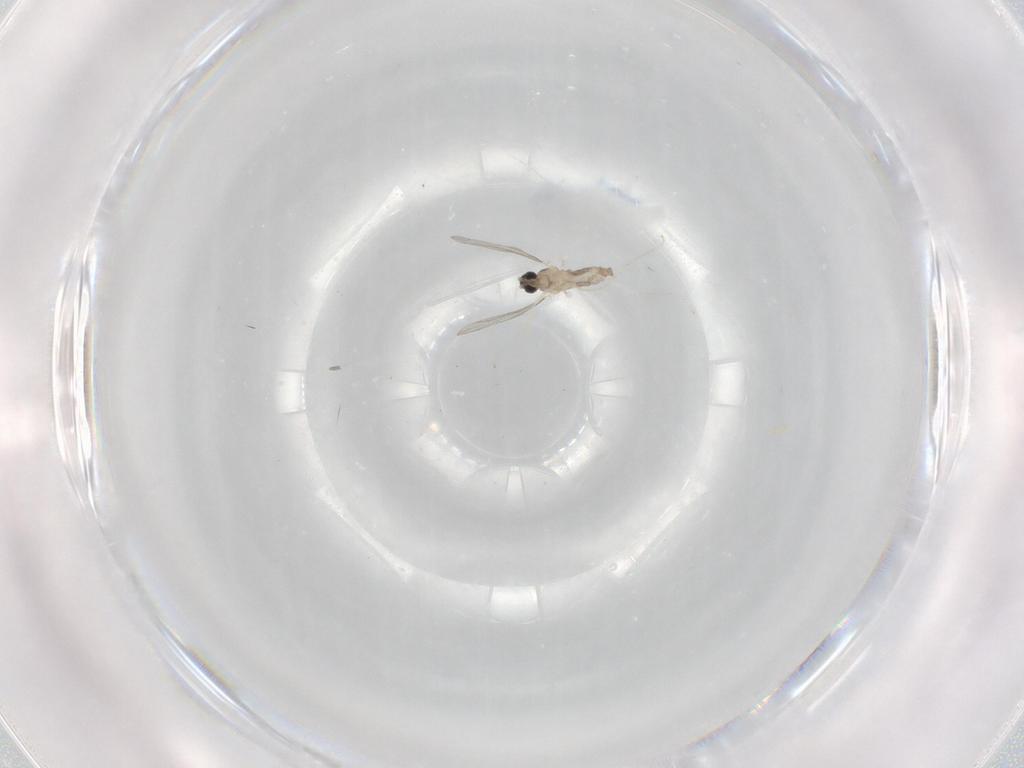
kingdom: Animalia
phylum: Arthropoda
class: Insecta
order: Diptera
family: Cecidomyiidae
